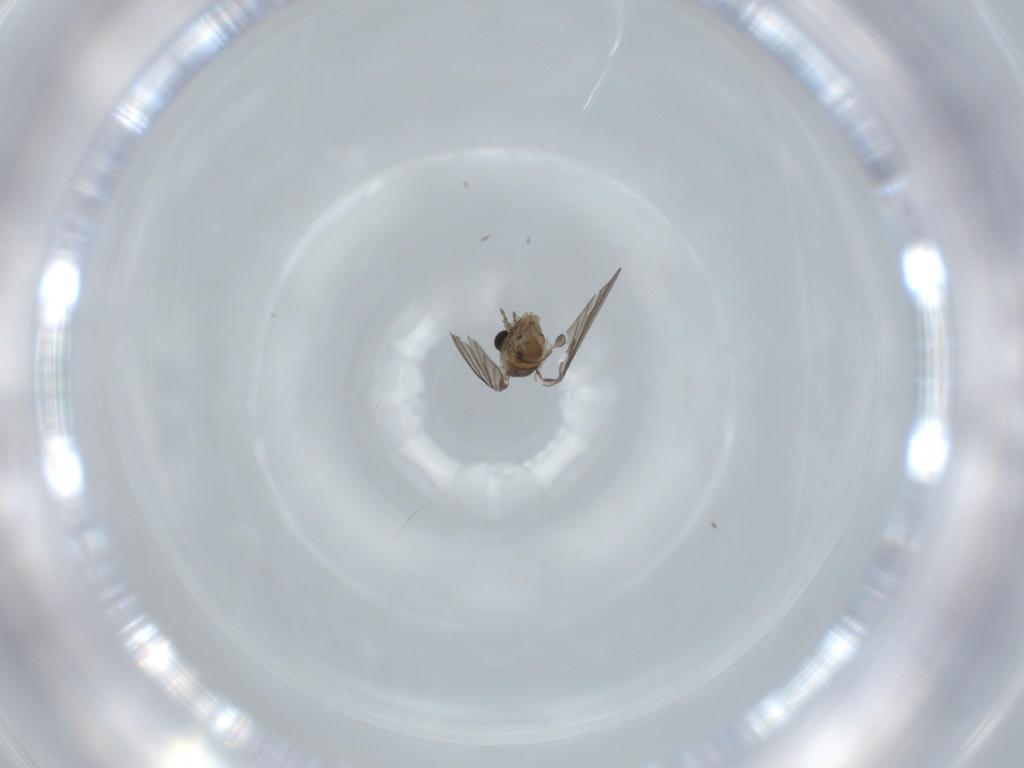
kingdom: Animalia
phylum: Arthropoda
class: Insecta
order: Diptera
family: Psychodidae
